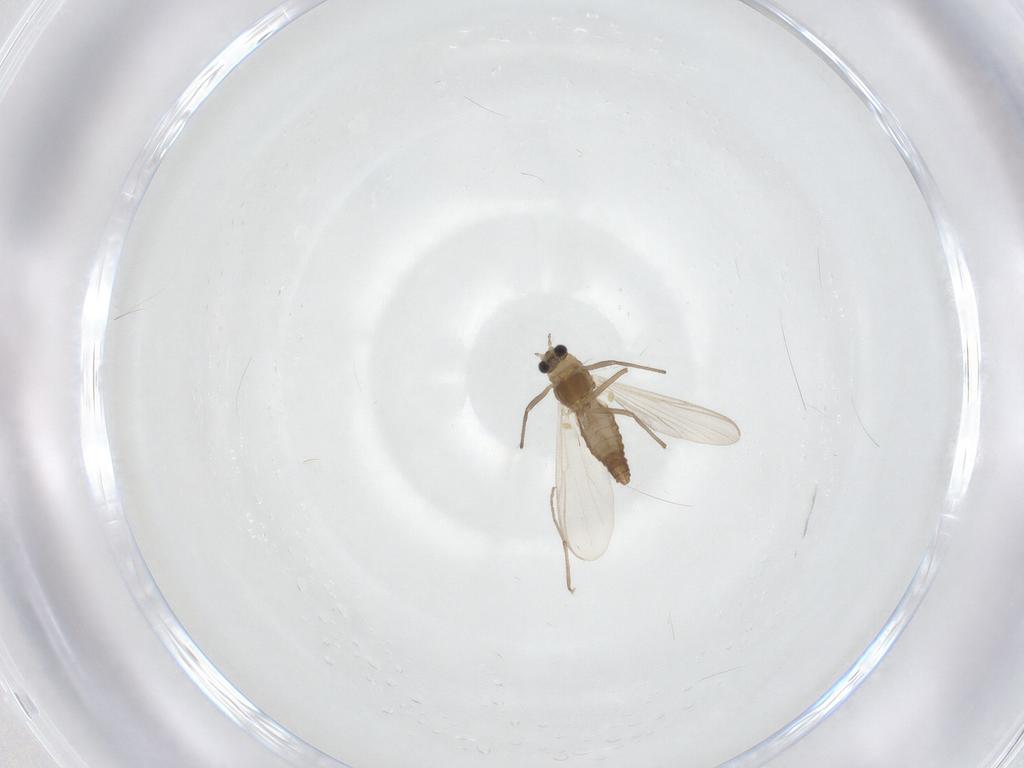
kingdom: Animalia
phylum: Arthropoda
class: Insecta
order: Diptera
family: Chironomidae
